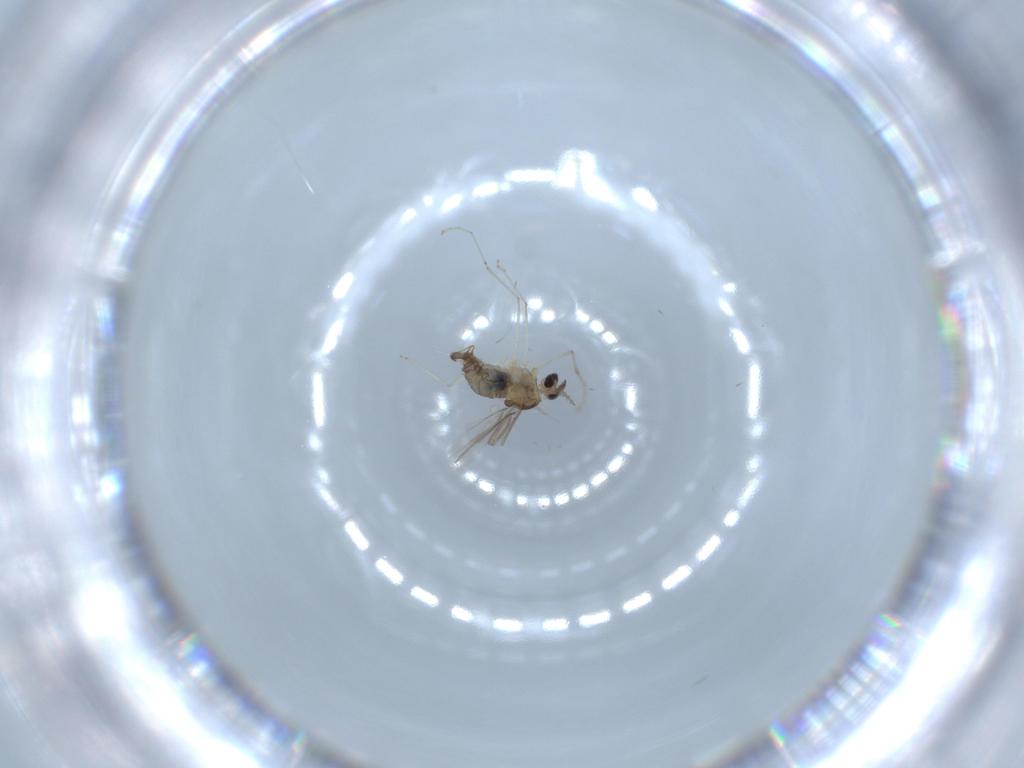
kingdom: Animalia
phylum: Arthropoda
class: Insecta
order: Diptera
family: Cecidomyiidae
